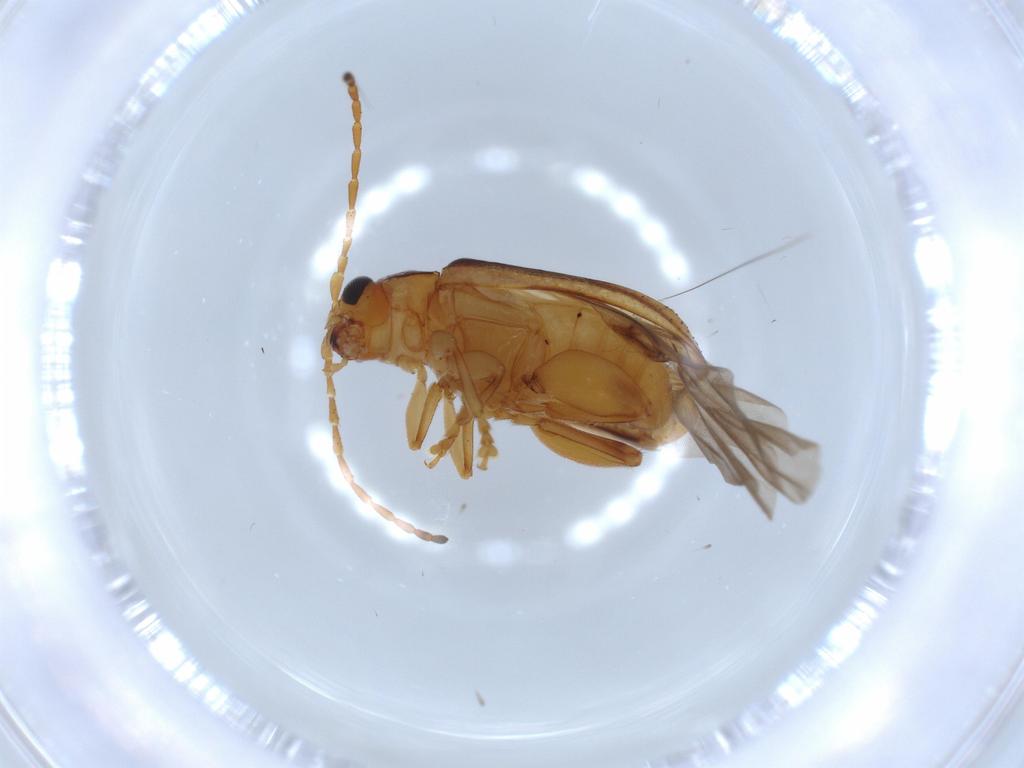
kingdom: Animalia
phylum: Arthropoda
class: Insecta
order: Coleoptera
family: Chrysomelidae
